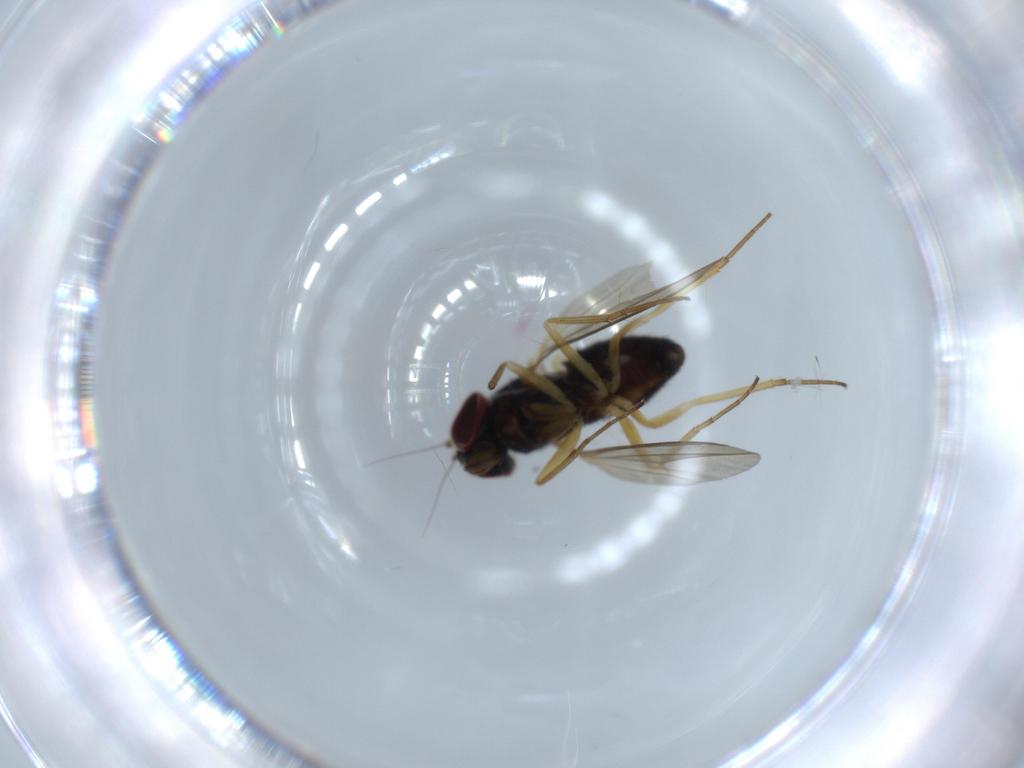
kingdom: Animalia
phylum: Arthropoda
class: Insecta
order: Diptera
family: Dolichopodidae
